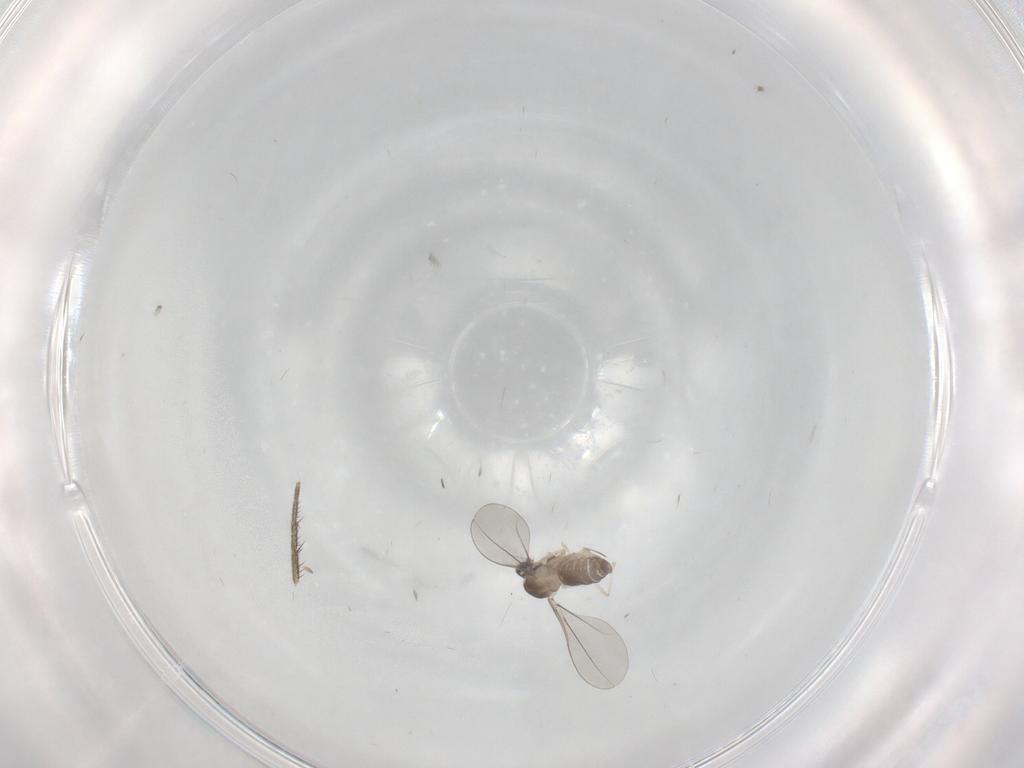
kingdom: Animalia
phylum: Arthropoda
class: Insecta
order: Diptera
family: Cecidomyiidae
